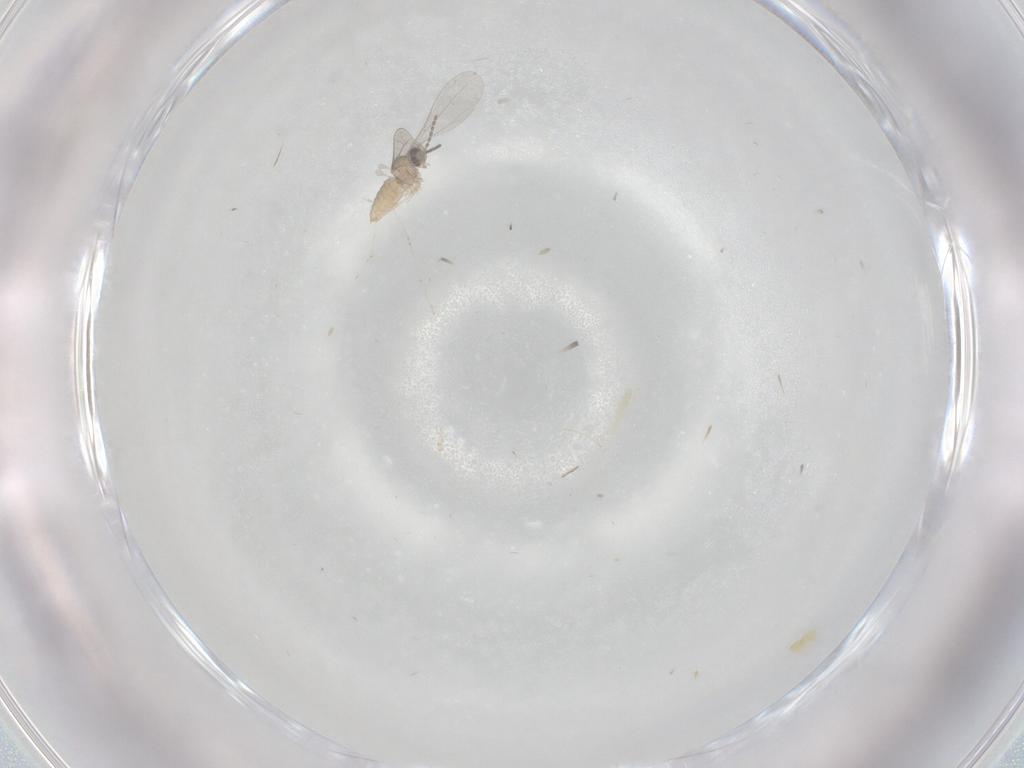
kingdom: Animalia
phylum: Arthropoda
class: Insecta
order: Diptera
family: Cecidomyiidae
